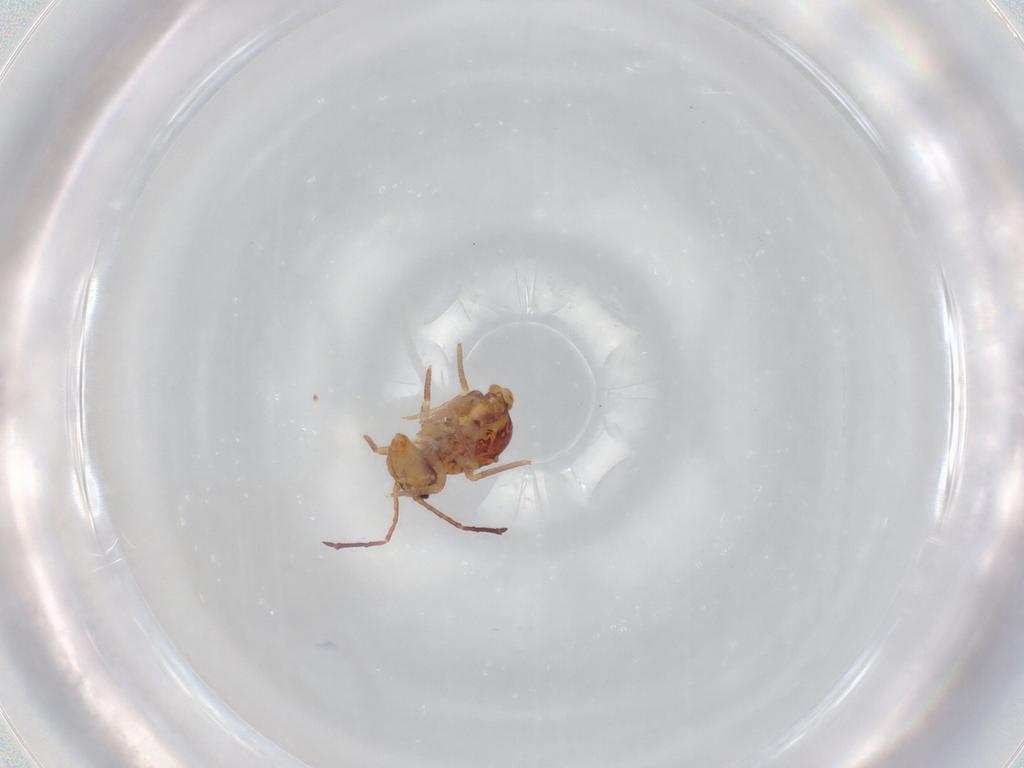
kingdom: Animalia
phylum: Arthropoda
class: Collembola
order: Symphypleona
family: Dicyrtomidae
